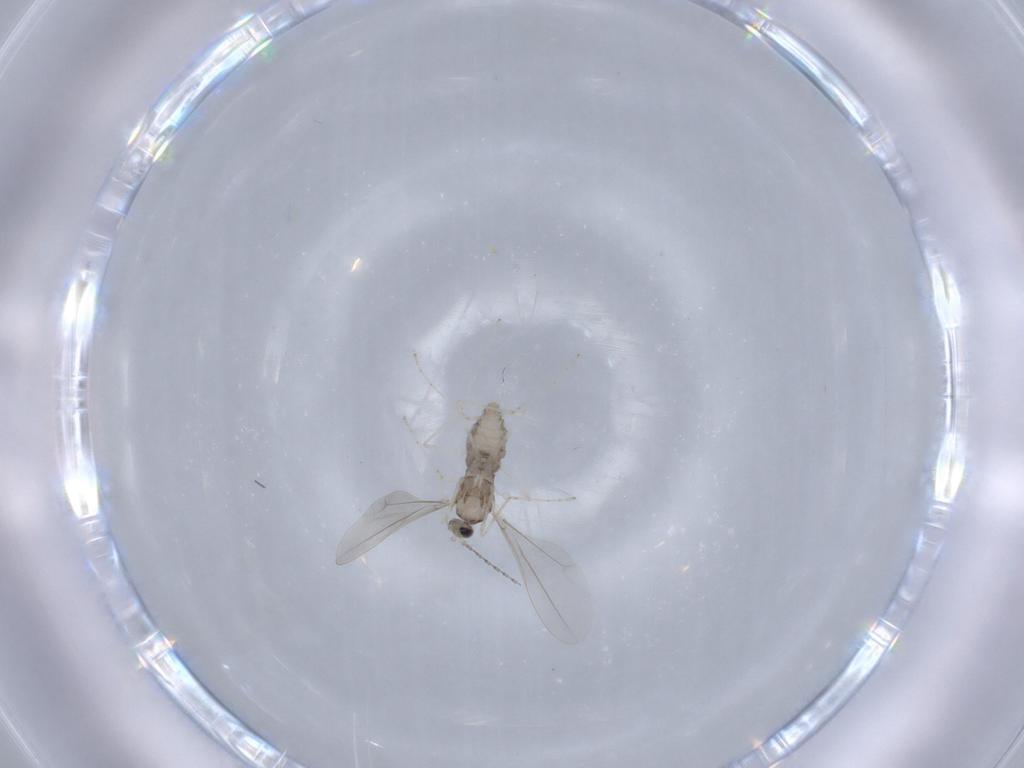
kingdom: Animalia
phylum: Arthropoda
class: Insecta
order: Diptera
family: Cecidomyiidae
